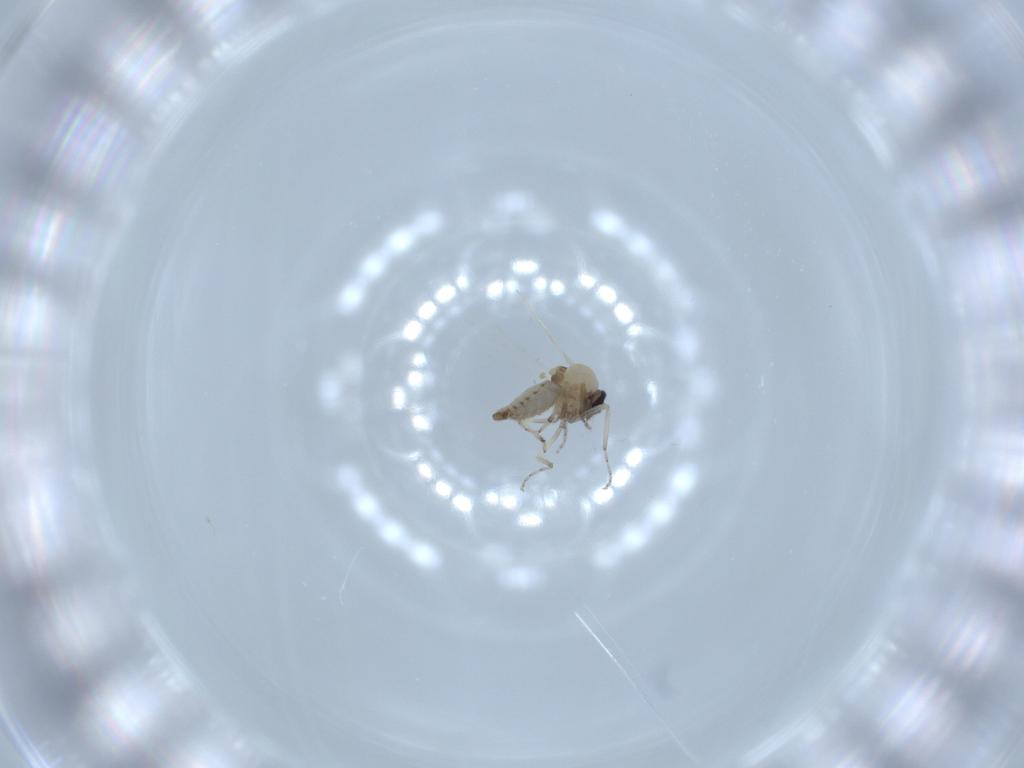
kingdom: Animalia
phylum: Arthropoda
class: Insecta
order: Diptera
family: Ceratopogonidae
